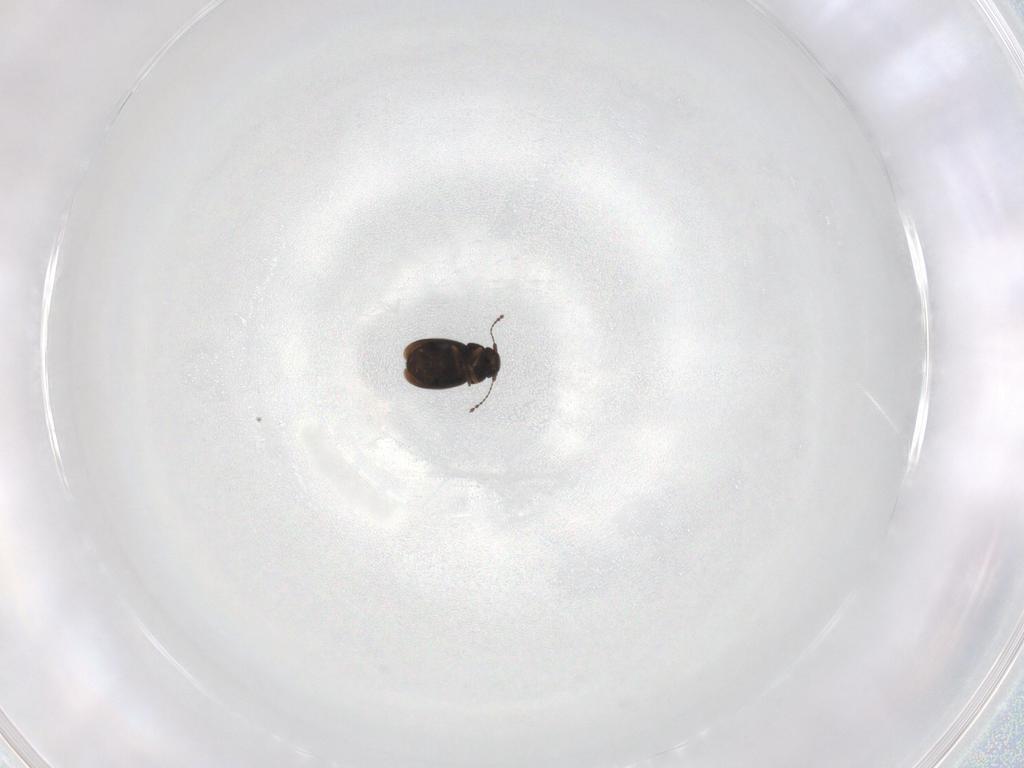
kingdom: Animalia
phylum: Arthropoda
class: Insecta
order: Coleoptera
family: Ptiliidae
